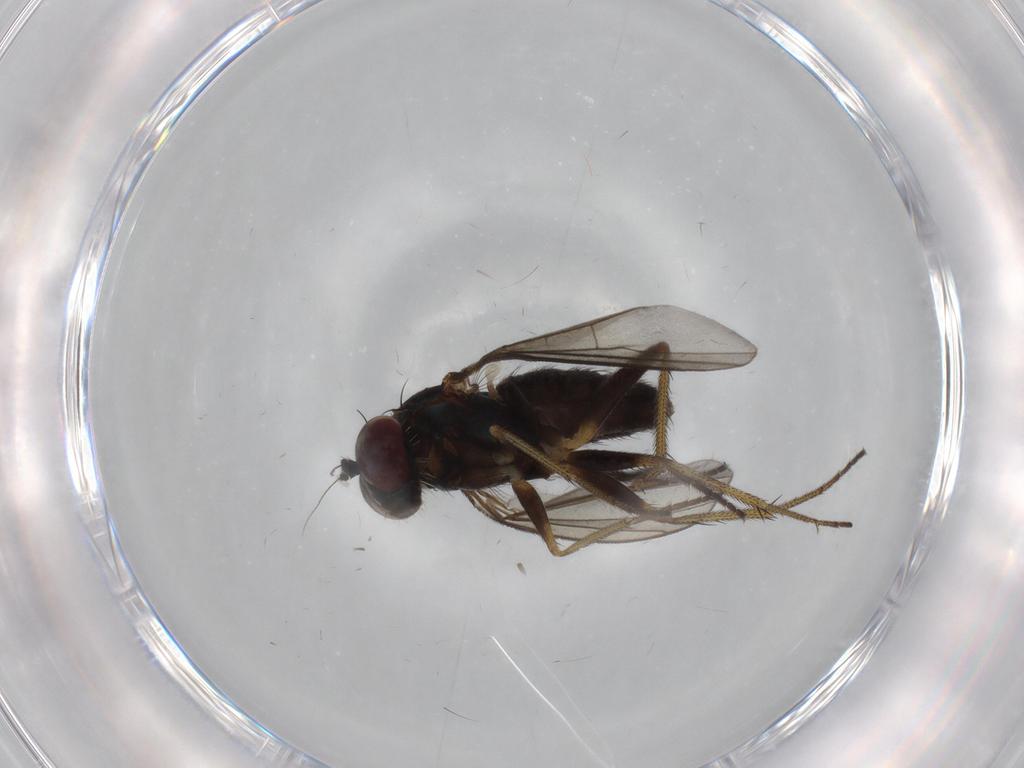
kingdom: Animalia
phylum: Arthropoda
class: Insecta
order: Diptera
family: Dolichopodidae
